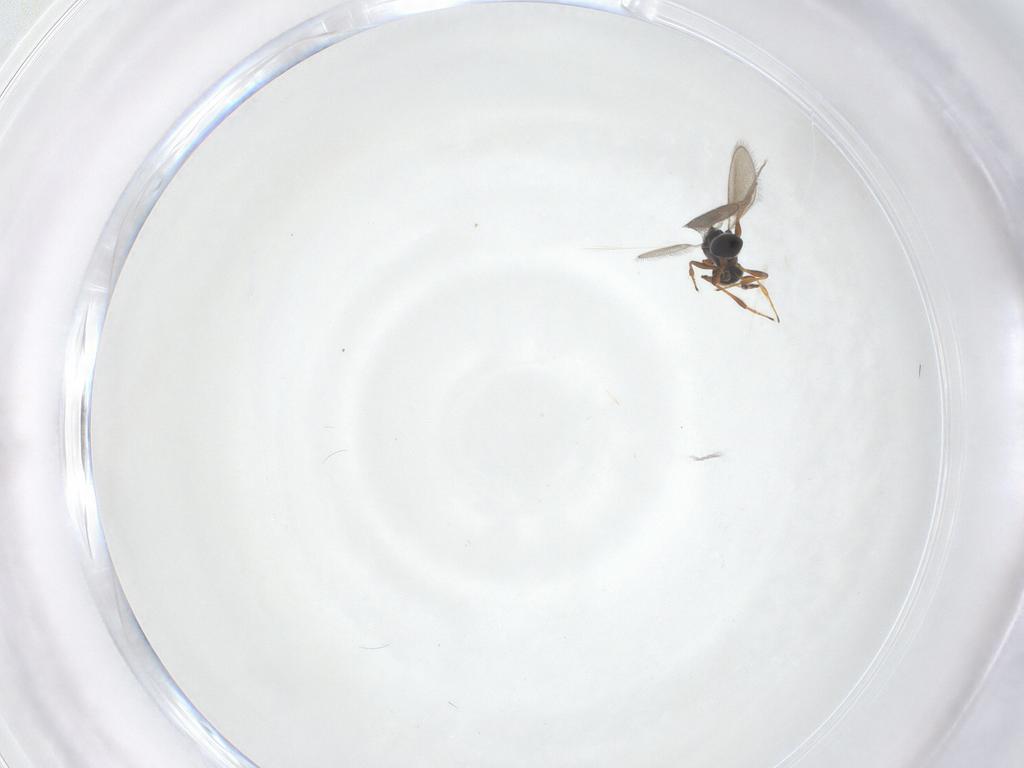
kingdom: Animalia
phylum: Arthropoda
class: Insecta
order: Hymenoptera
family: Platygastridae
